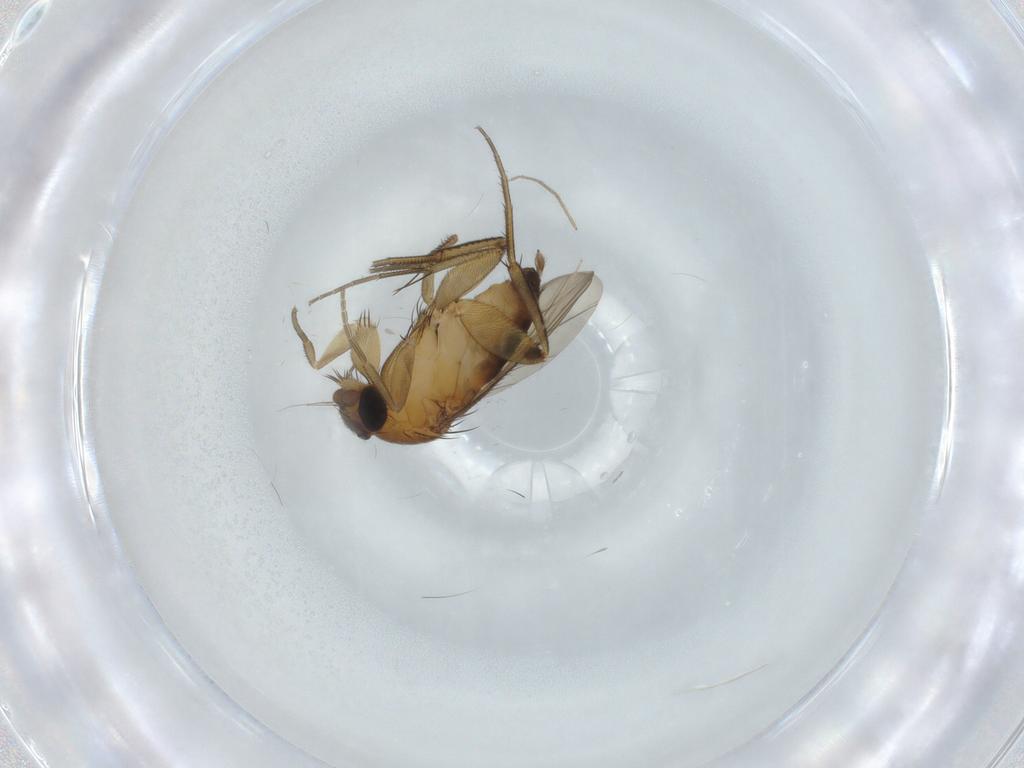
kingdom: Animalia
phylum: Arthropoda
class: Insecta
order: Diptera
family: Phoridae
